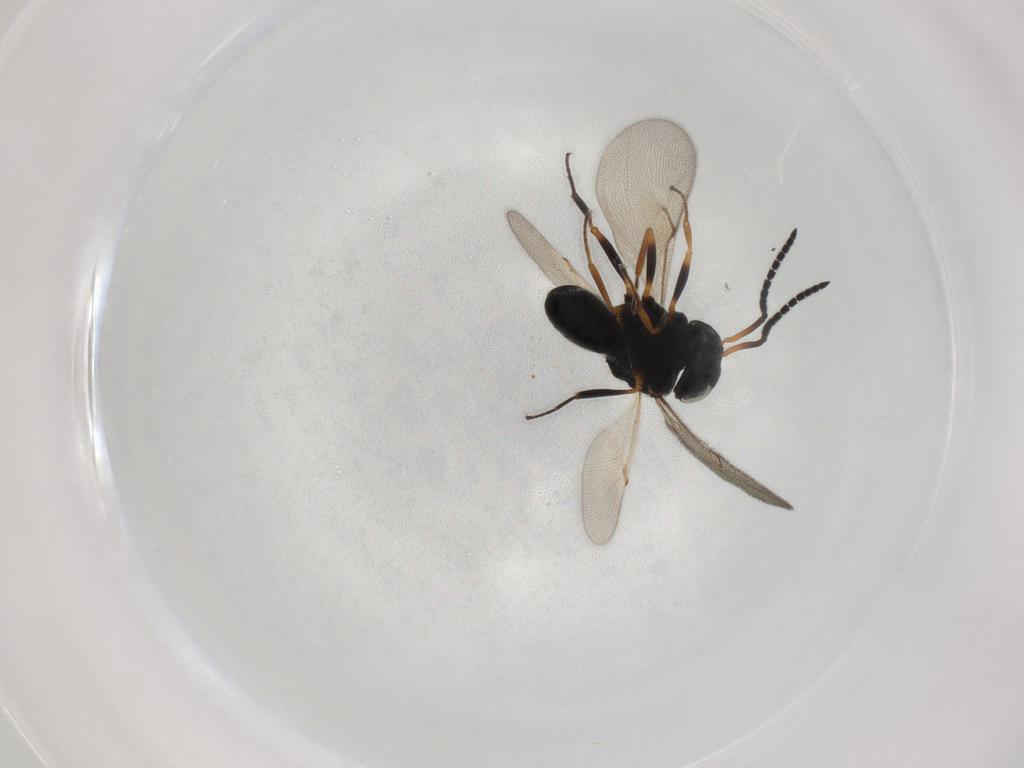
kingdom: Animalia
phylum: Arthropoda
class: Insecta
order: Hymenoptera
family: Scelionidae
